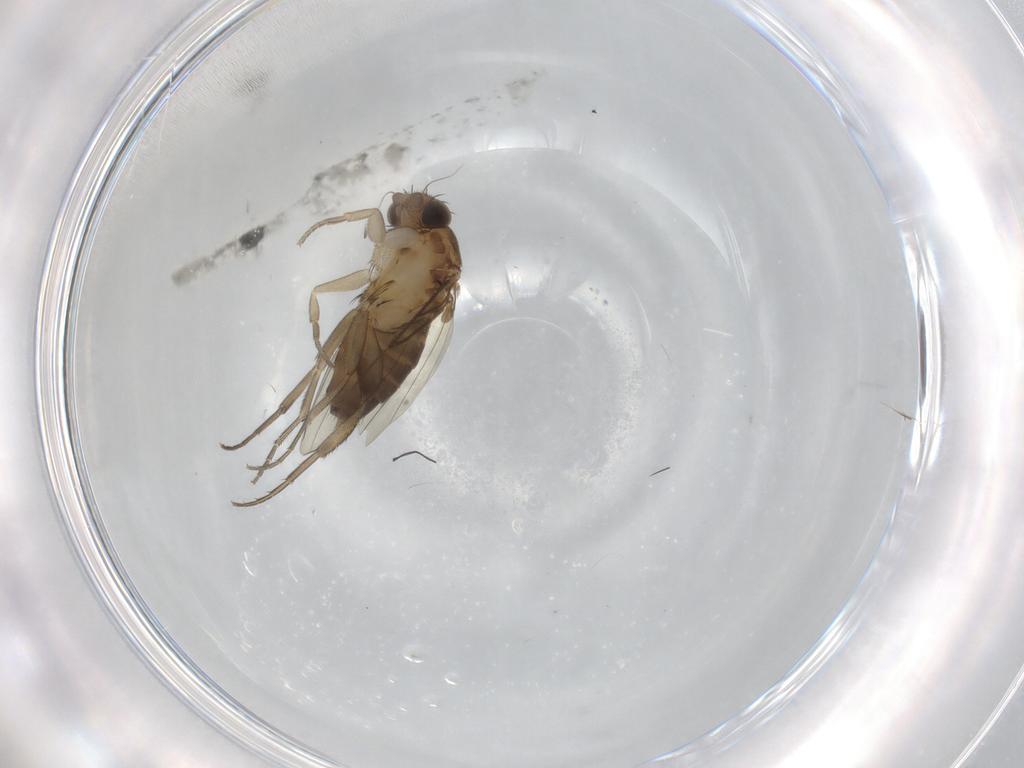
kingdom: Animalia
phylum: Arthropoda
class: Insecta
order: Diptera
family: Phoridae
